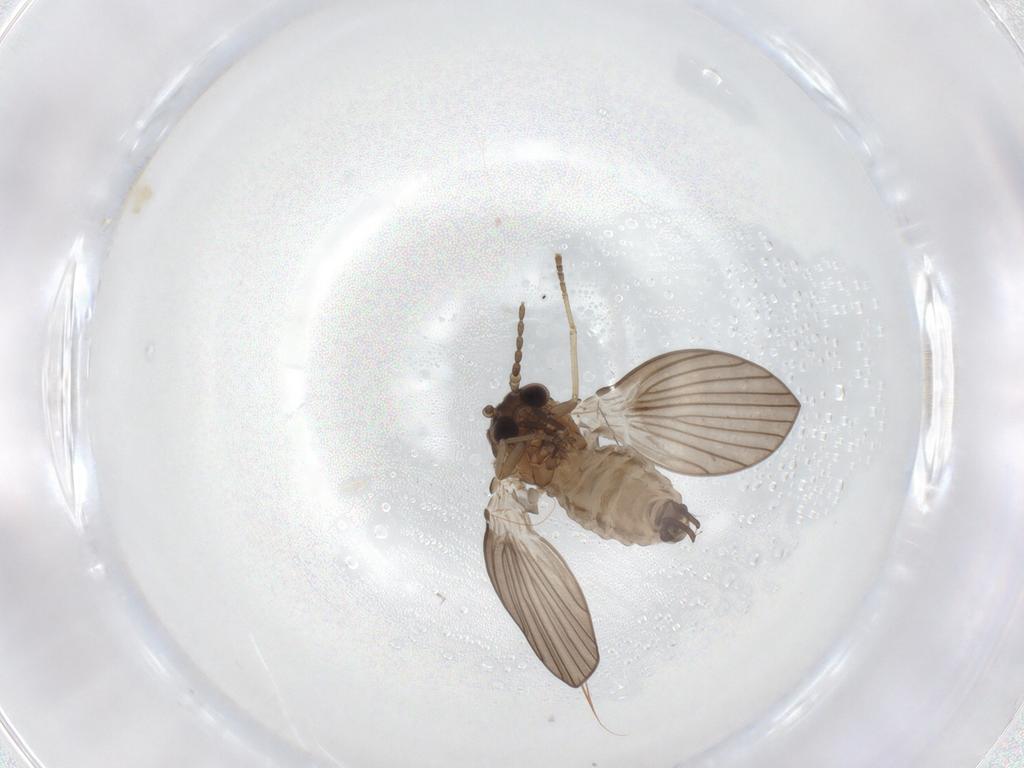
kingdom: Animalia
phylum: Arthropoda
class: Insecta
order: Diptera
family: Psychodidae
